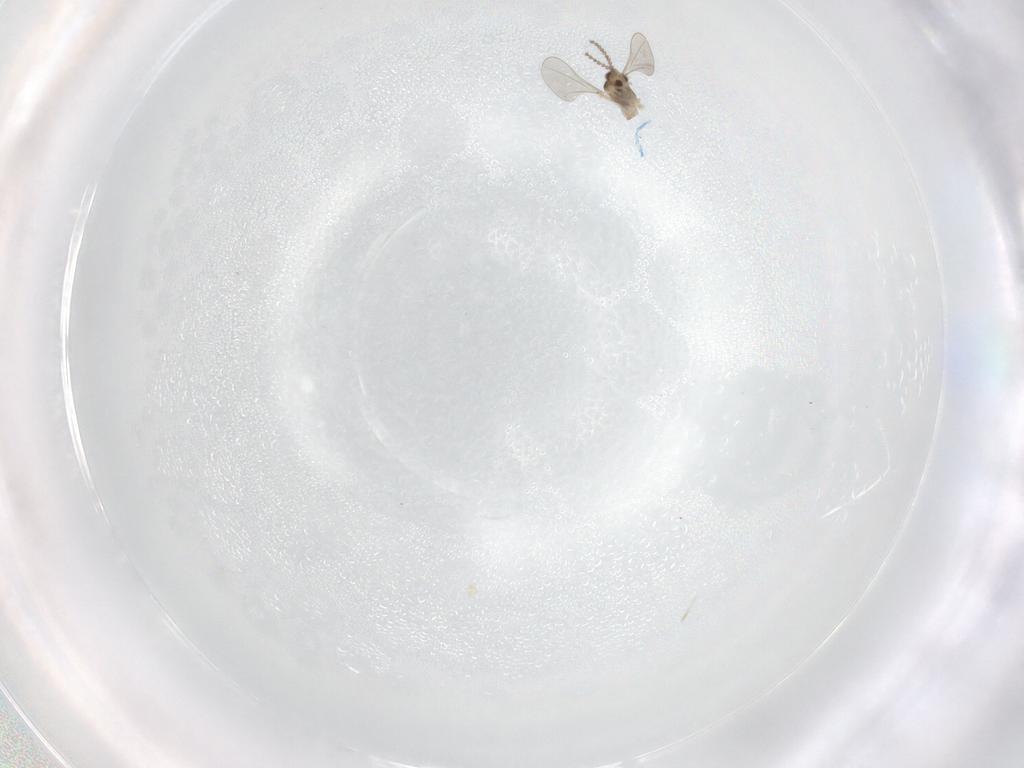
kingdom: Animalia
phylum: Arthropoda
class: Insecta
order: Diptera
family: Cecidomyiidae
